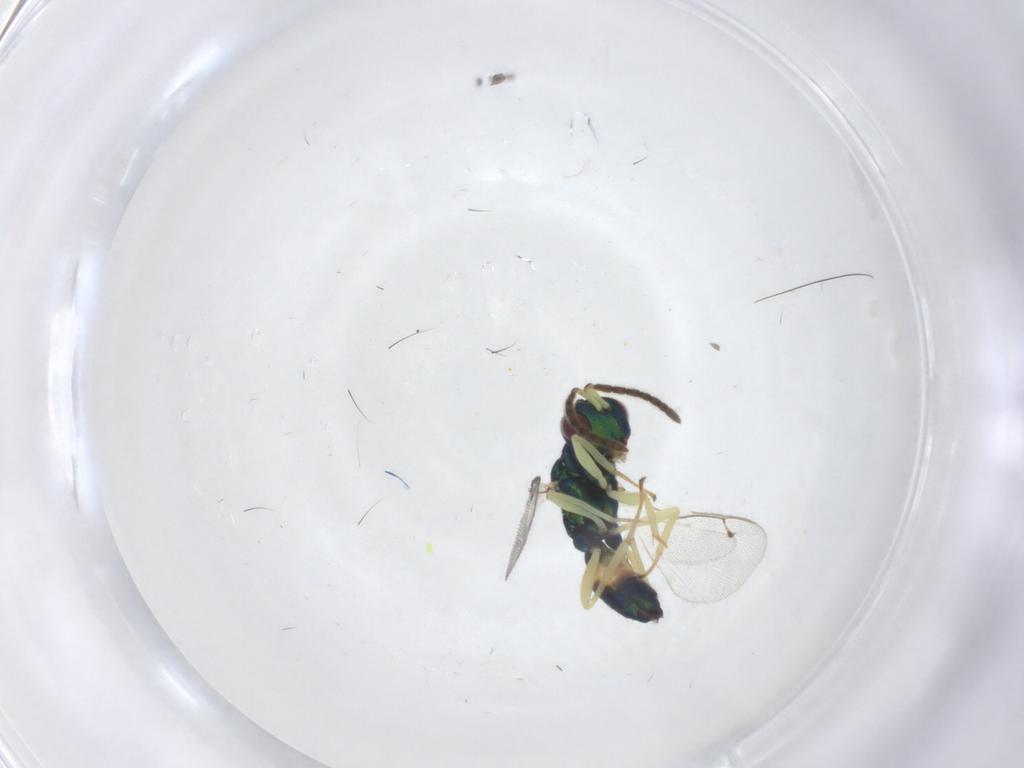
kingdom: Animalia
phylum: Arthropoda
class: Insecta
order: Hymenoptera
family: Pteromalidae
